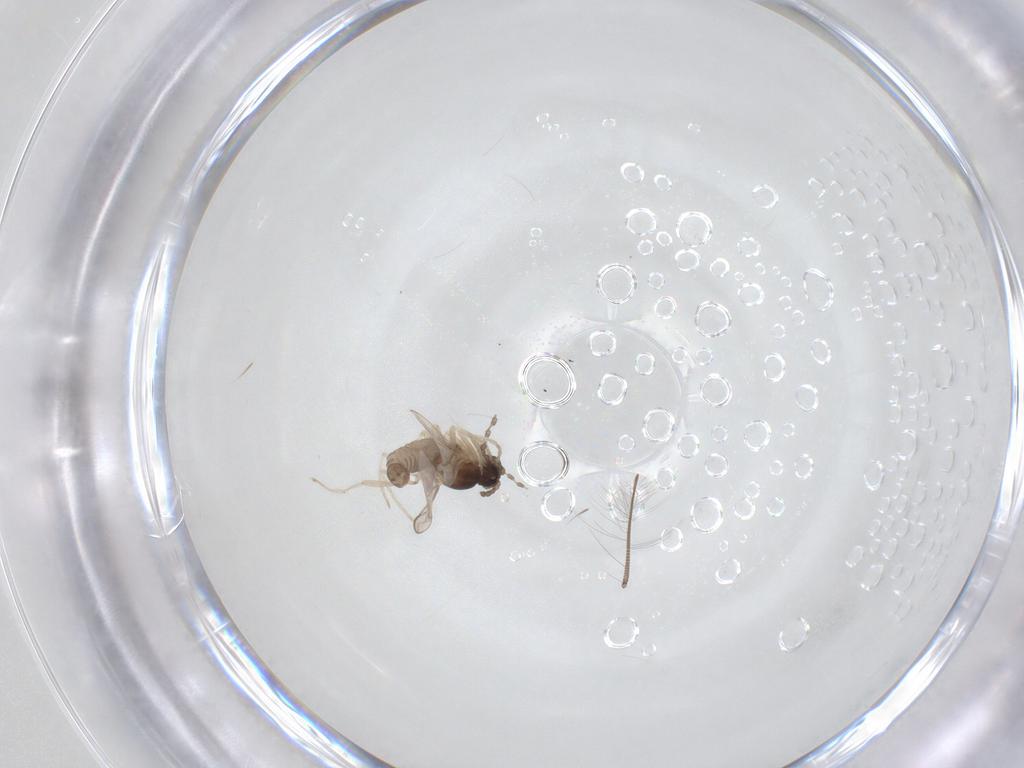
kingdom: Animalia
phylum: Arthropoda
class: Insecta
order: Diptera
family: Cecidomyiidae
